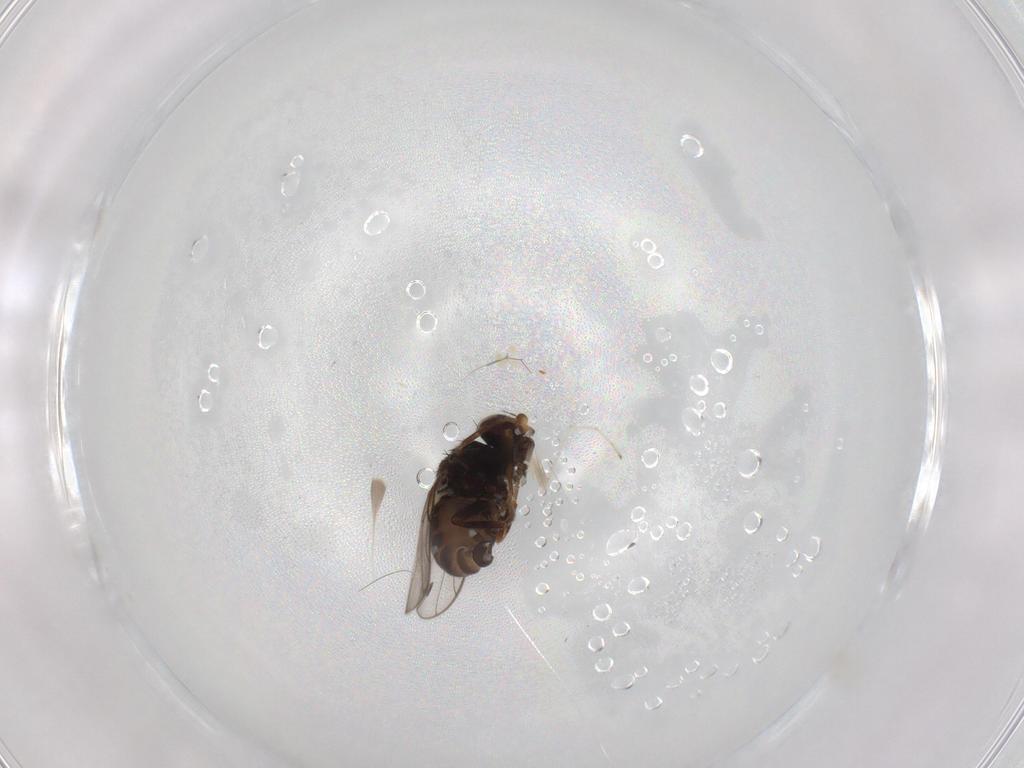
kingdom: Animalia
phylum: Arthropoda
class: Insecta
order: Diptera
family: Chloropidae
